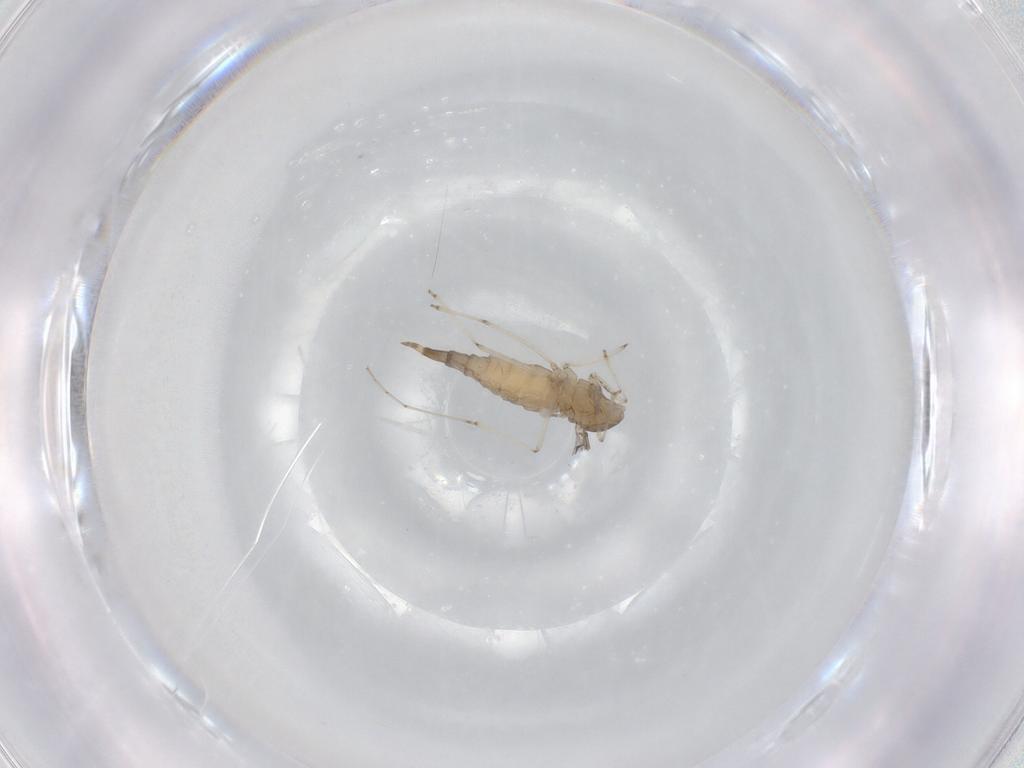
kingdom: Animalia
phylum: Arthropoda
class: Insecta
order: Diptera
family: Cecidomyiidae
